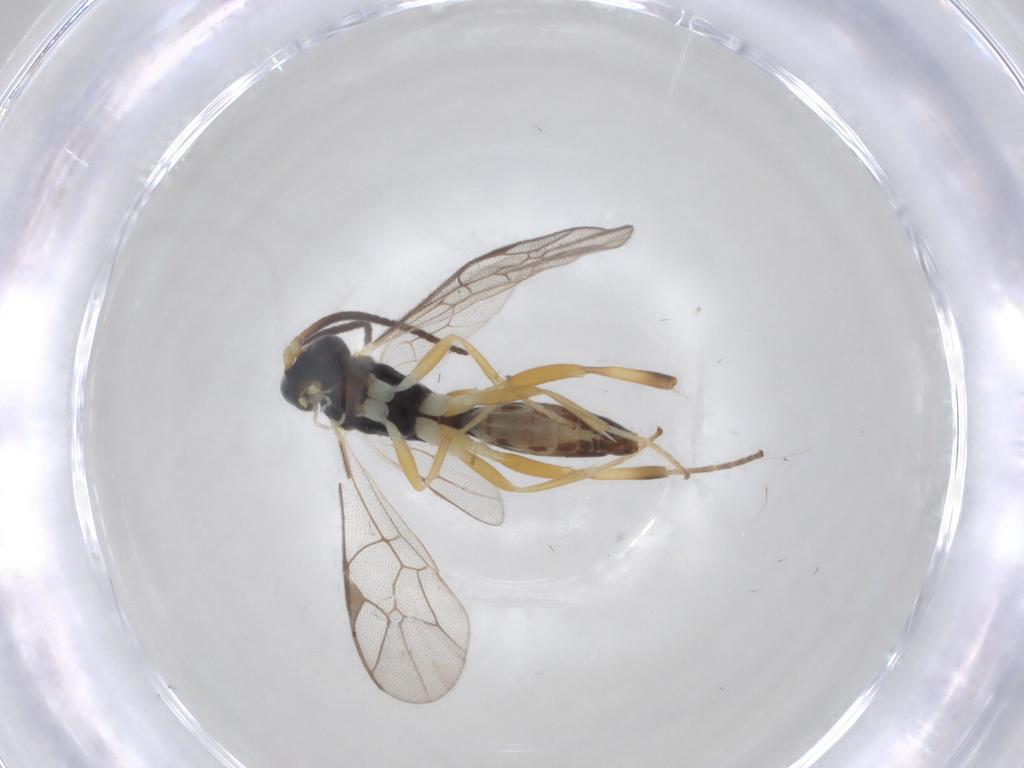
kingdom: Animalia
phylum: Arthropoda
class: Insecta
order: Hymenoptera
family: Ichneumonidae
